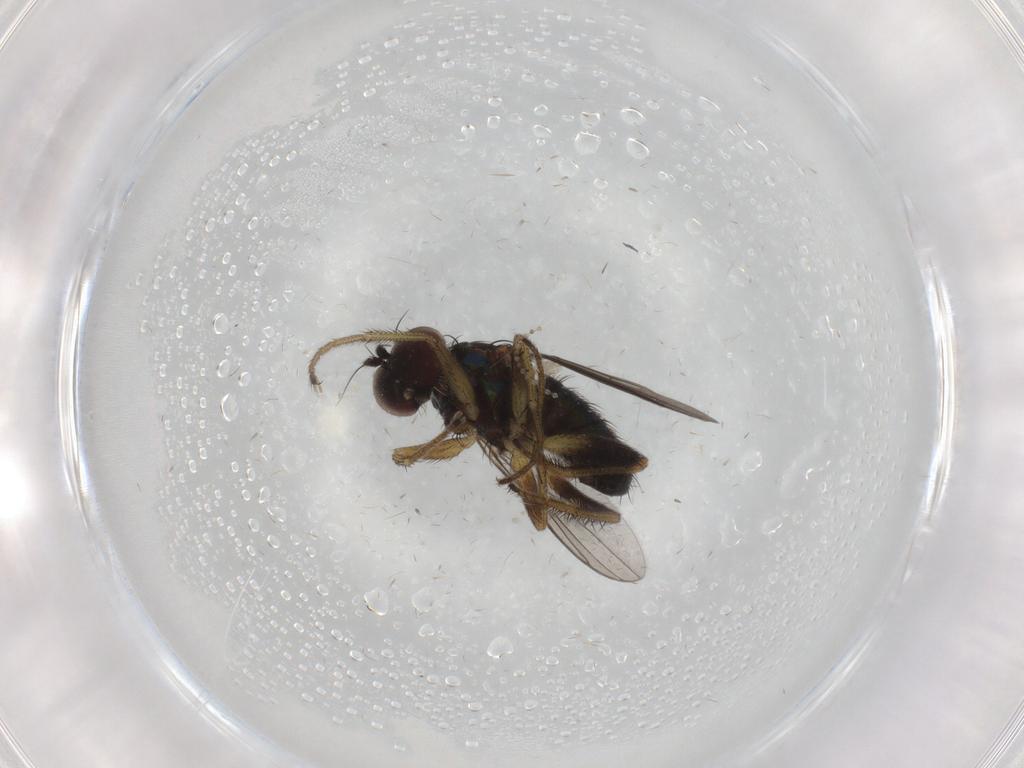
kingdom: Animalia
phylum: Arthropoda
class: Insecta
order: Diptera
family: Dolichopodidae
